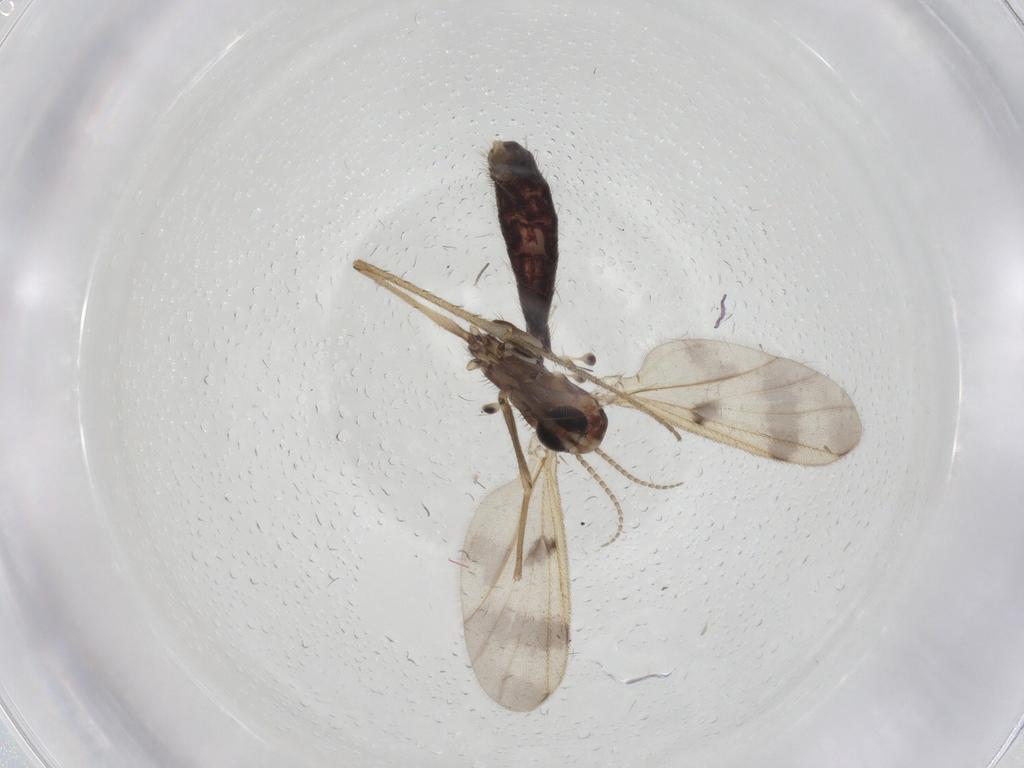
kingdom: Animalia
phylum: Arthropoda
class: Insecta
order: Diptera
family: Mycetophilidae
